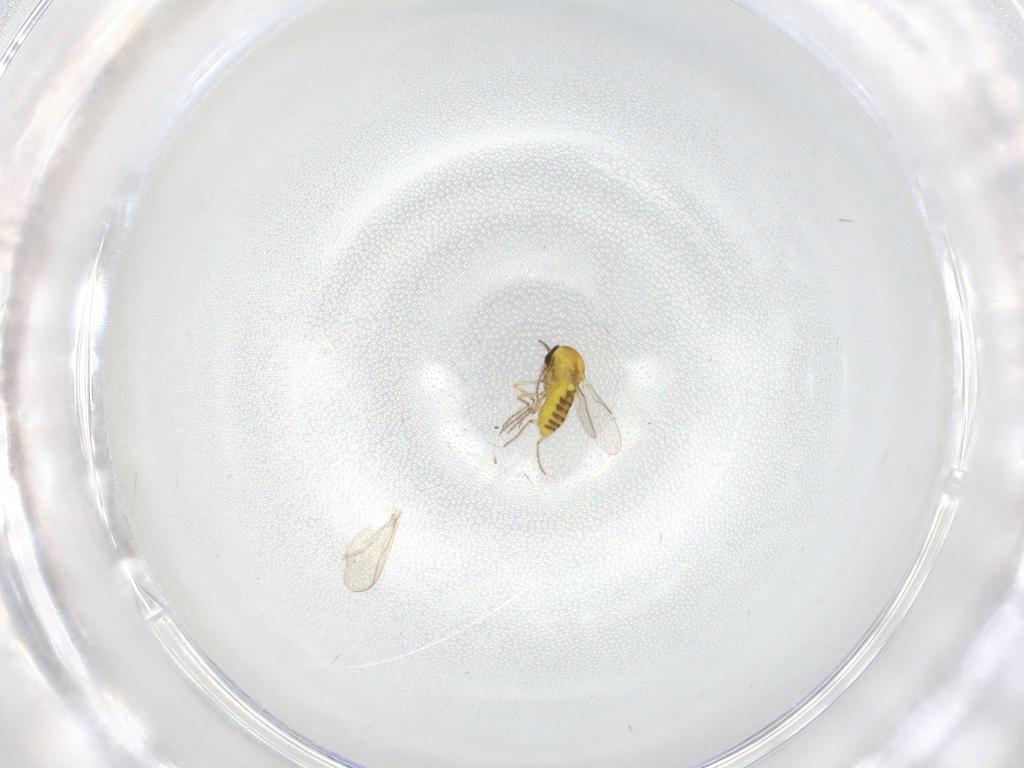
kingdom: Animalia
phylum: Arthropoda
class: Insecta
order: Diptera
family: Ceratopogonidae
